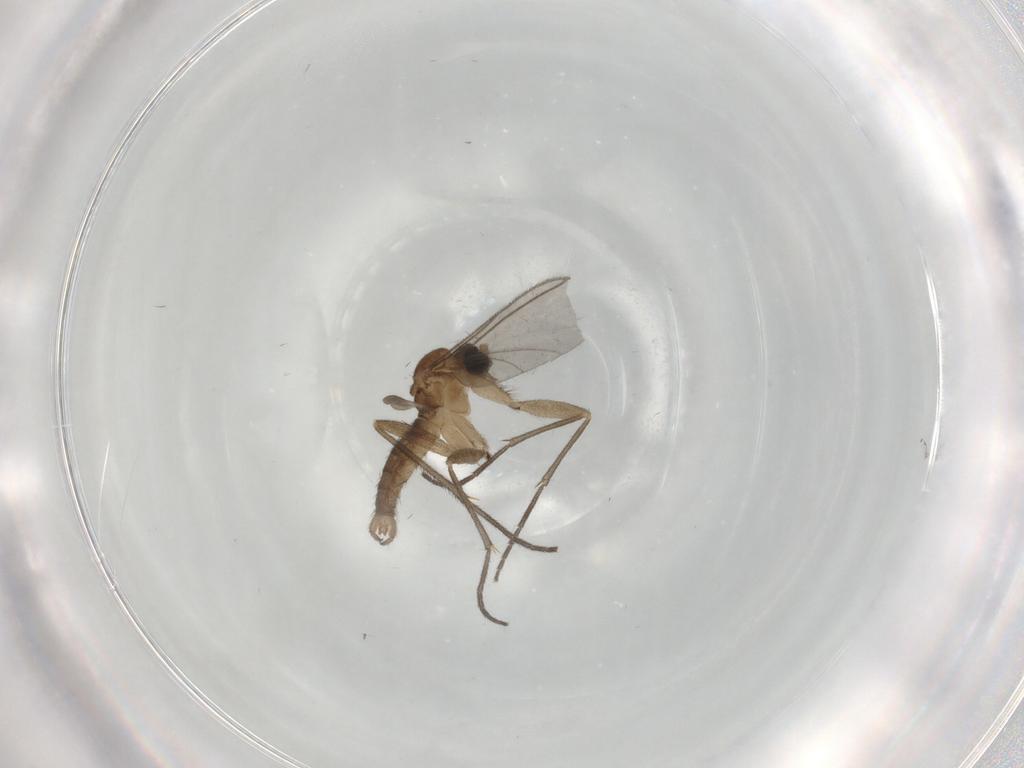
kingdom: Animalia
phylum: Arthropoda
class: Insecta
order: Diptera
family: Sciaridae
